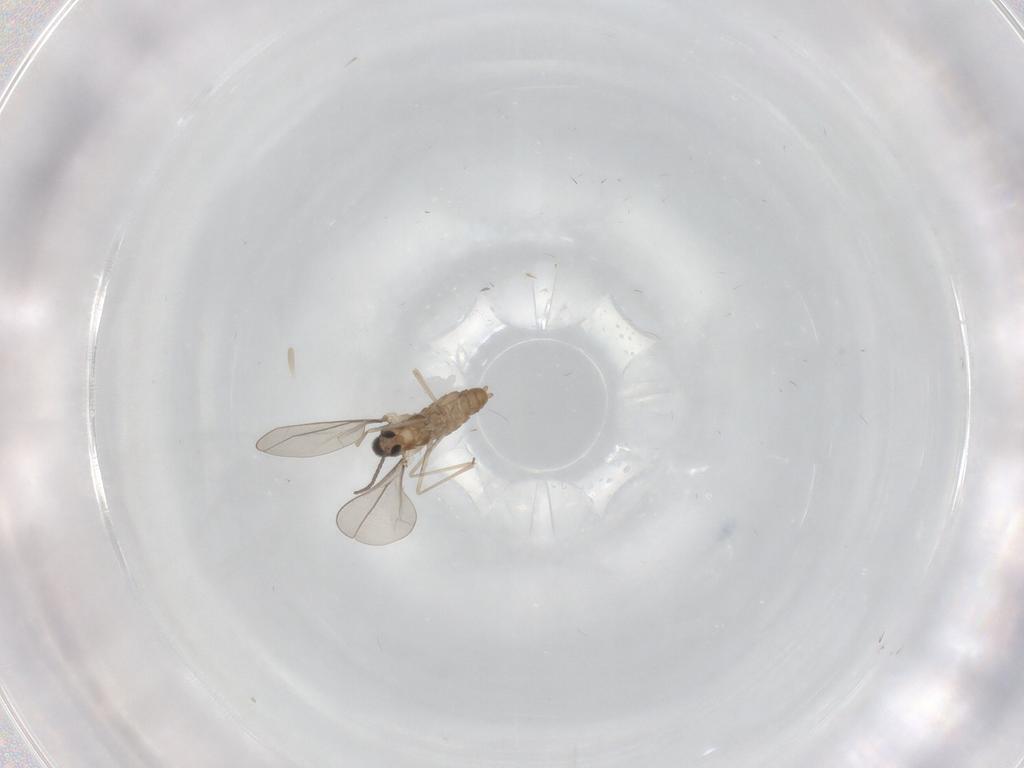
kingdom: Animalia
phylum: Arthropoda
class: Insecta
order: Diptera
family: Cecidomyiidae
